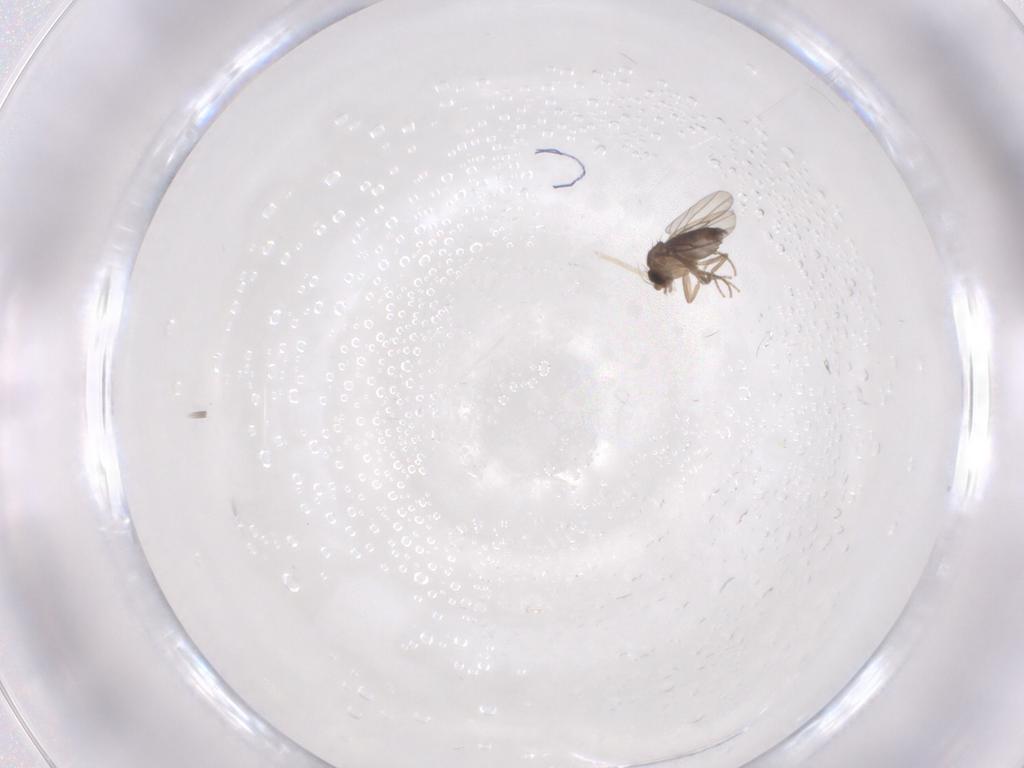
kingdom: Animalia
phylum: Arthropoda
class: Insecta
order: Diptera
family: Phoridae
